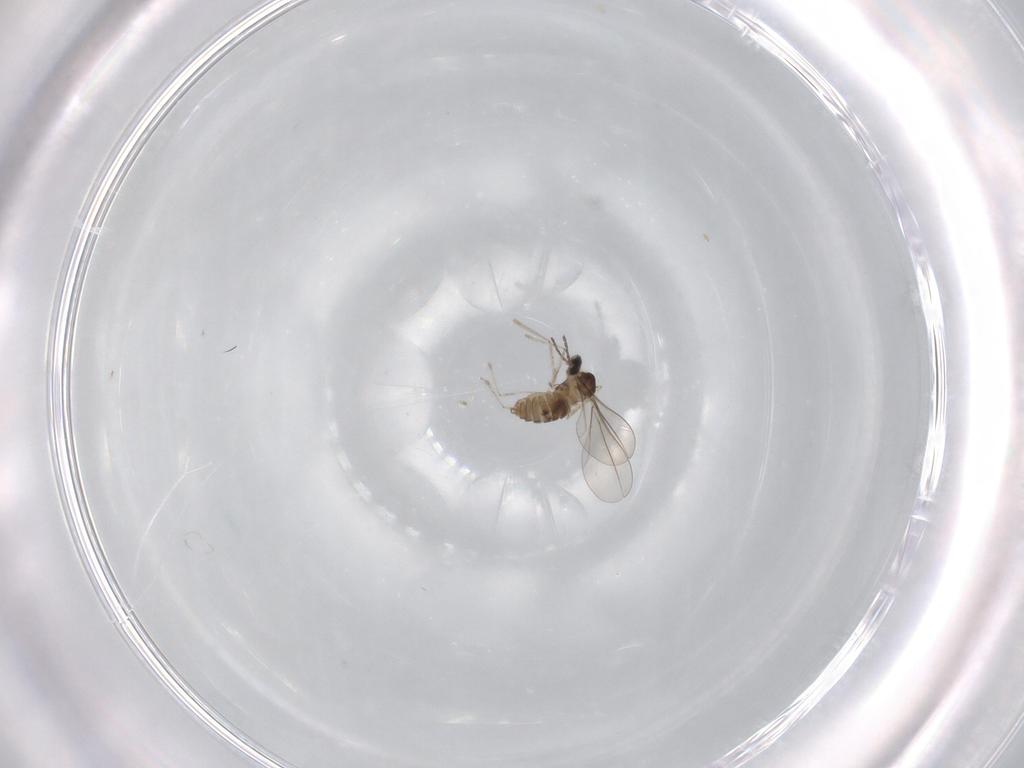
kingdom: Animalia
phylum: Arthropoda
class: Insecta
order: Diptera
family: Cecidomyiidae
